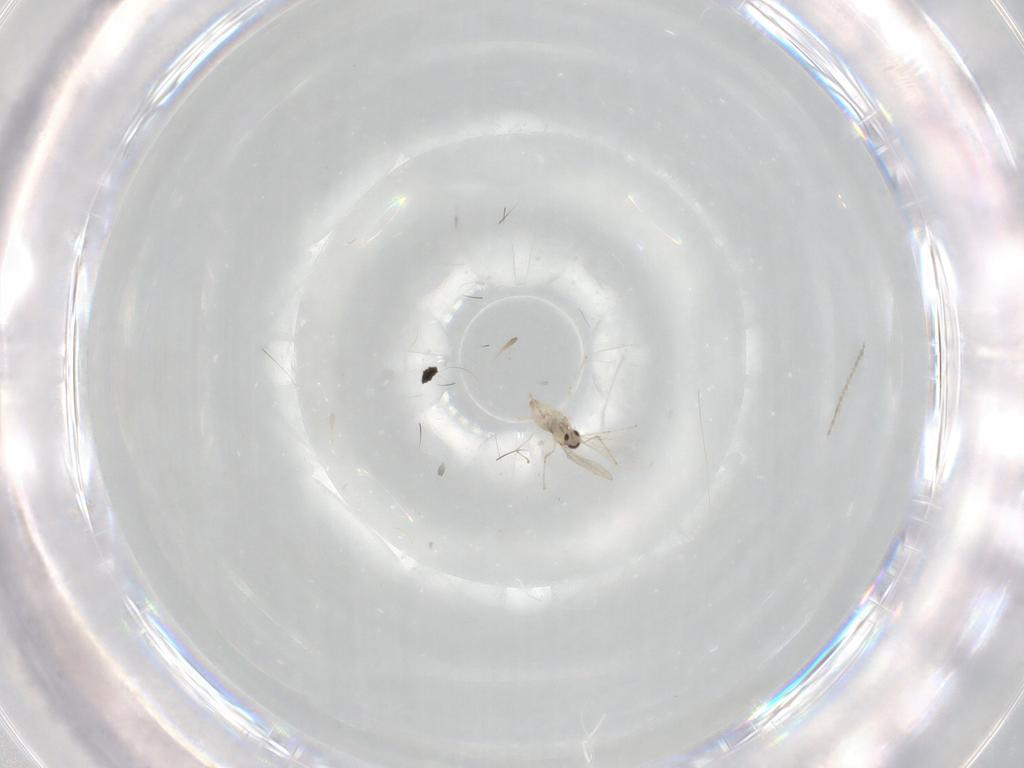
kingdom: Animalia
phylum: Arthropoda
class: Insecta
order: Diptera
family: Cecidomyiidae
